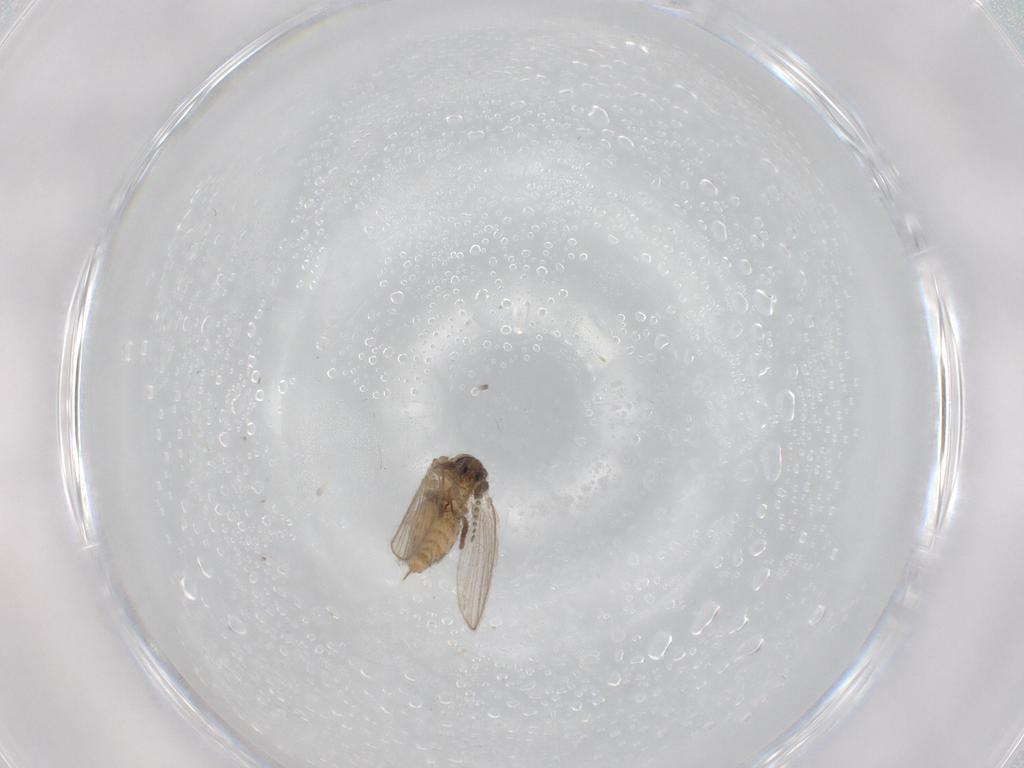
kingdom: Animalia
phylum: Arthropoda
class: Insecta
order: Diptera
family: Psychodidae
